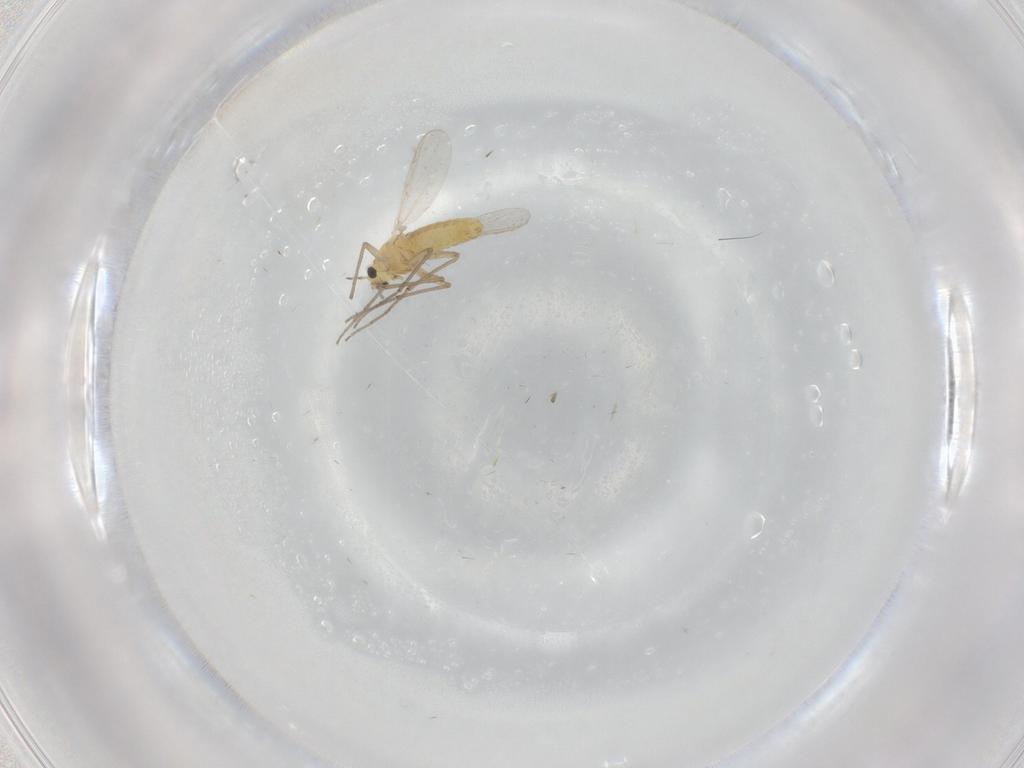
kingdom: Animalia
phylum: Arthropoda
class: Insecta
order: Diptera
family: Chironomidae
